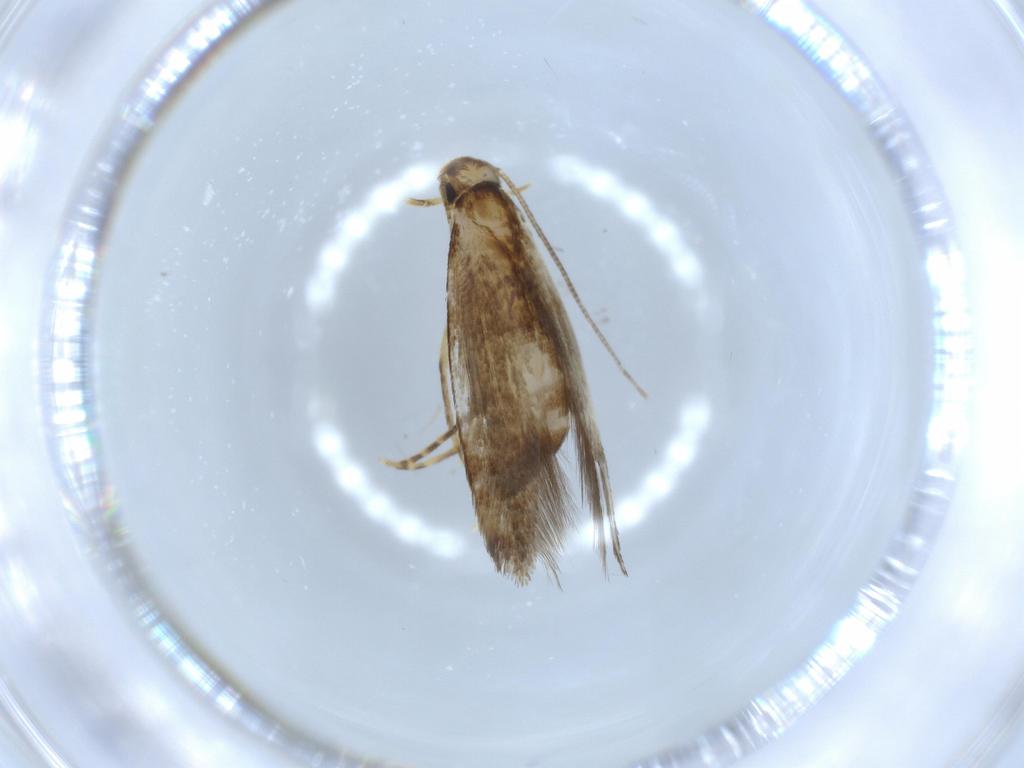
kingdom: Animalia
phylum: Arthropoda
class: Insecta
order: Lepidoptera
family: Tineidae
